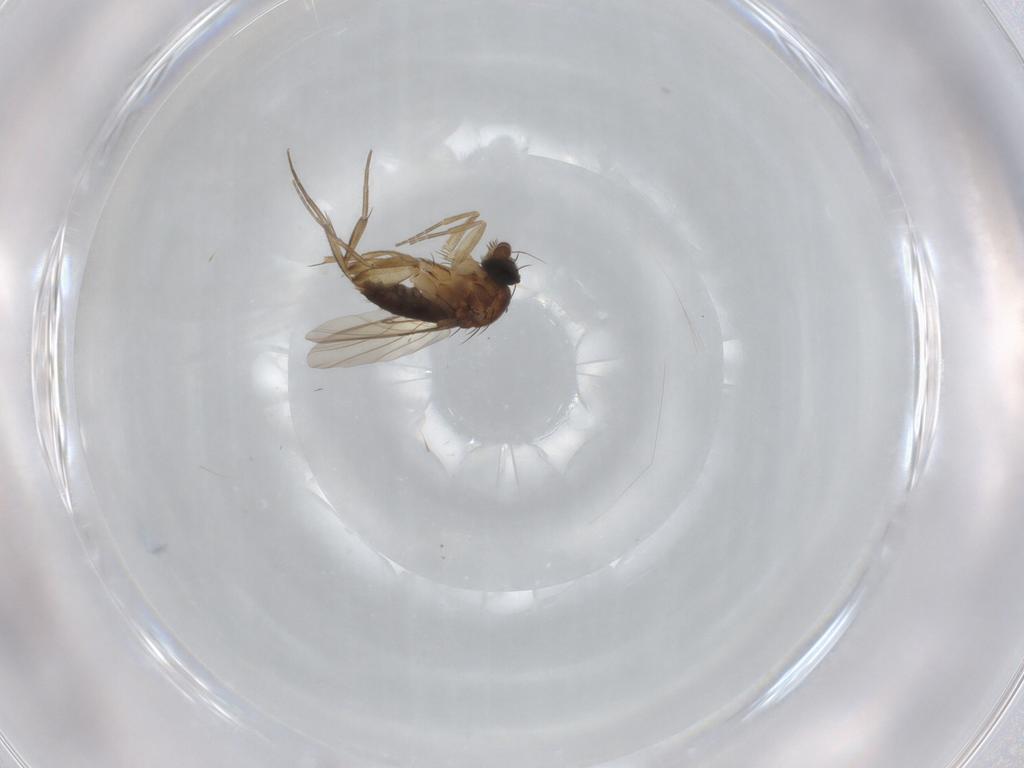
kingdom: Animalia
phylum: Arthropoda
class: Insecta
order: Diptera
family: Phoridae
